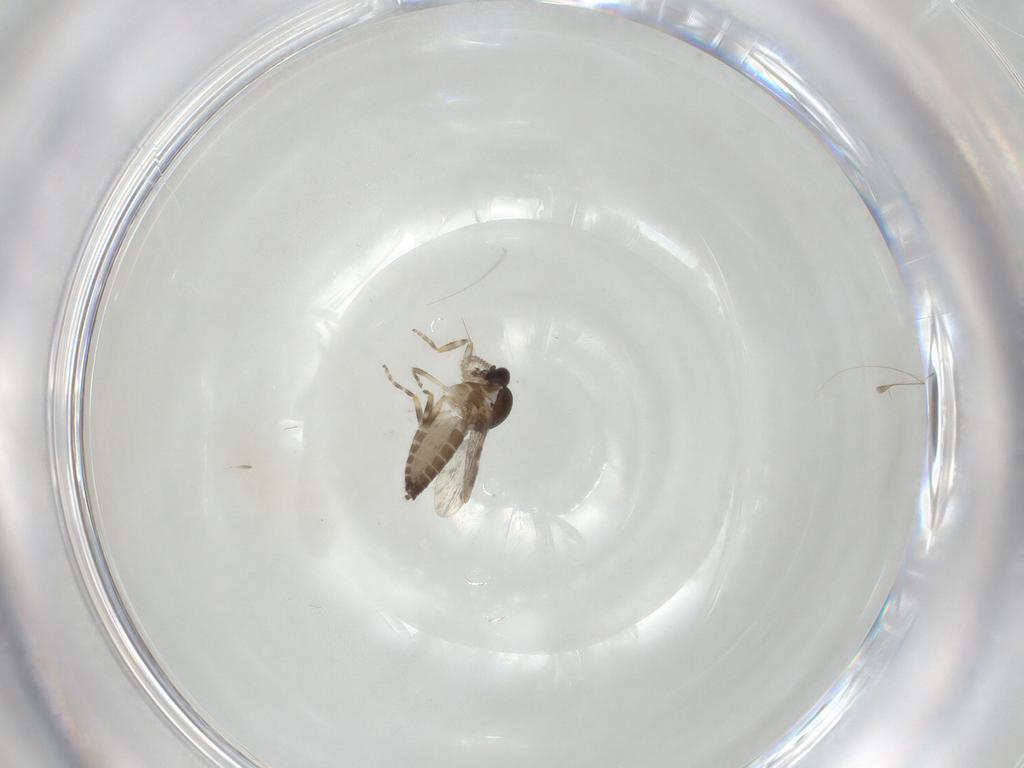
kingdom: Animalia
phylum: Arthropoda
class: Insecta
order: Diptera
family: Ceratopogonidae
